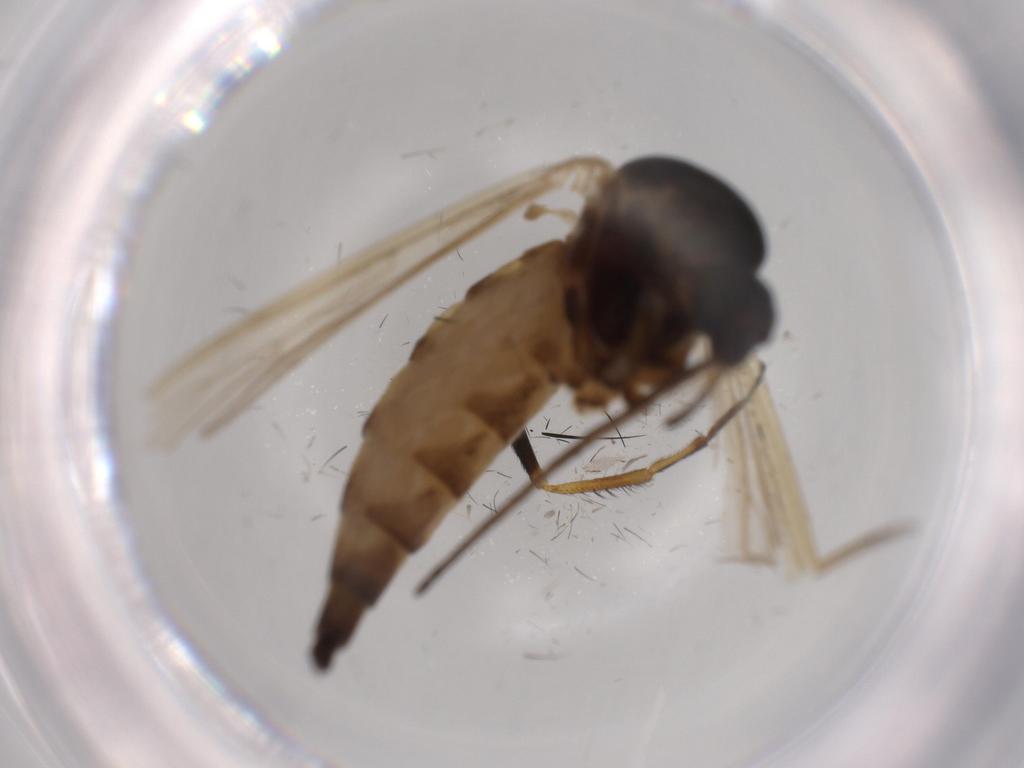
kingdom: Animalia
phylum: Arthropoda
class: Insecta
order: Diptera
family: Culicidae
